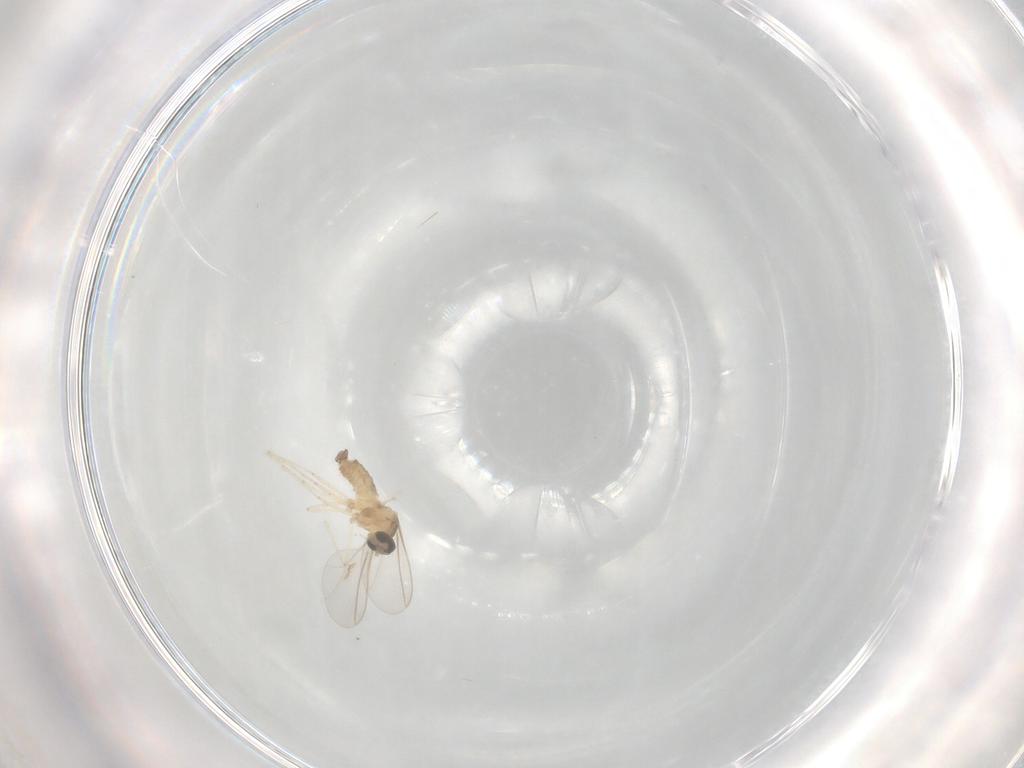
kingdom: Animalia
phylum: Arthropoda
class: Insecta
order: Diptera
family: Cecidomyiidae
